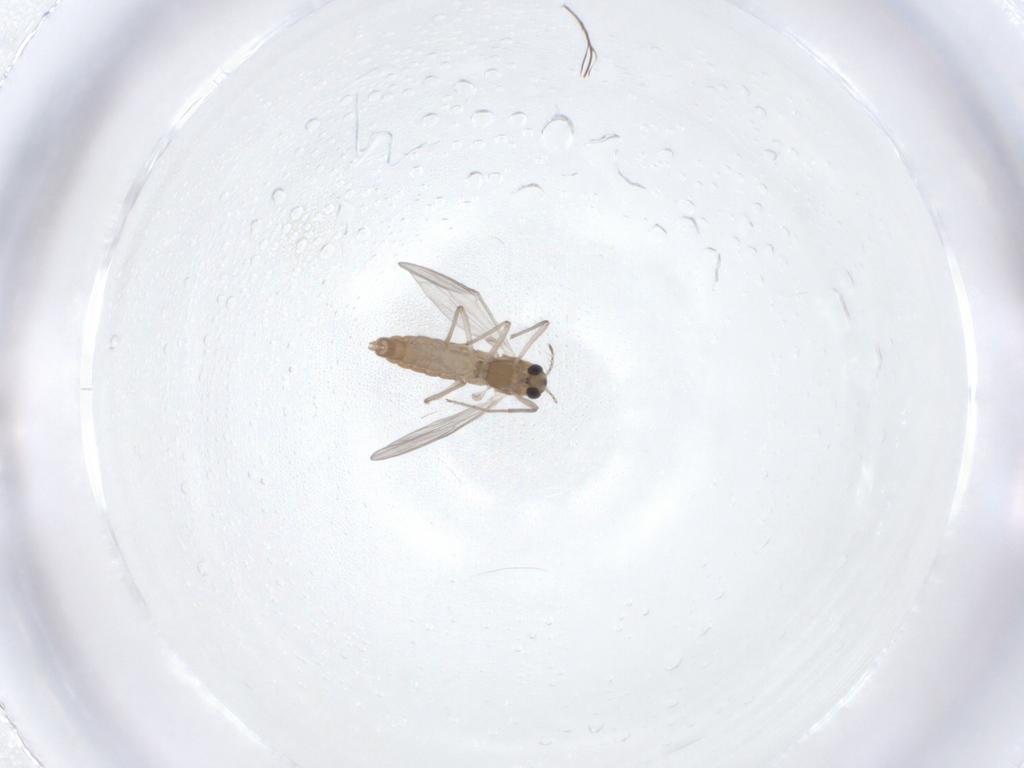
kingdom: Animalia
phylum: Arthropoda
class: Insecta
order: Diptera
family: Chironomidae
